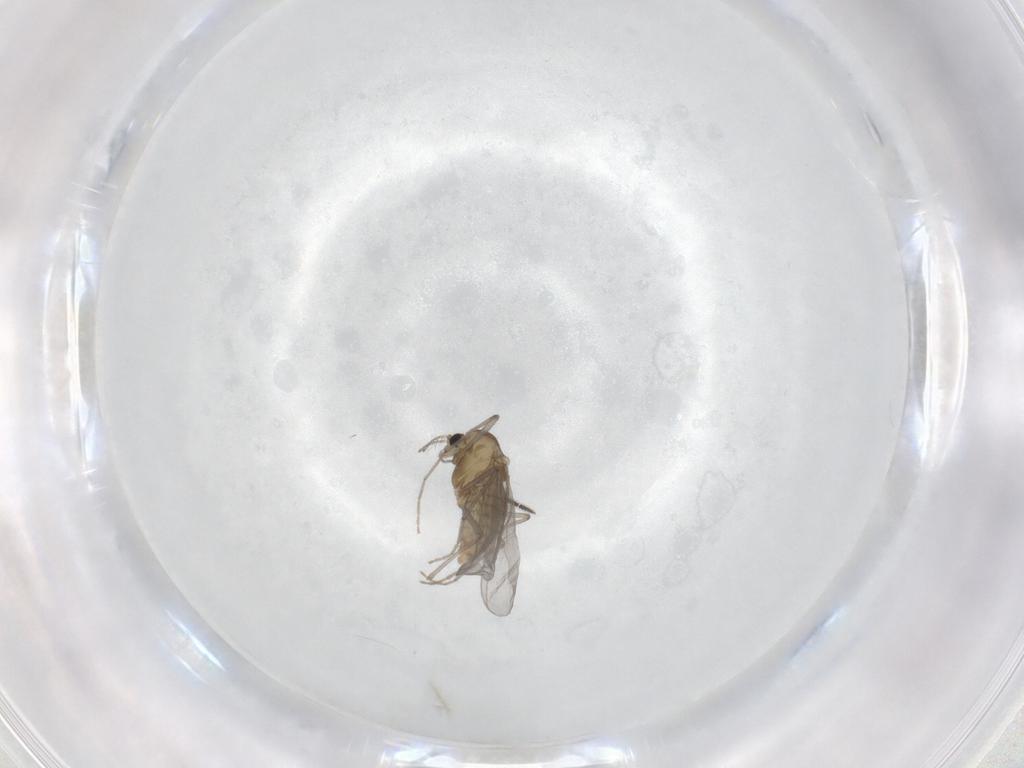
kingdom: Animalia
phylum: Arthropoda
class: Insecta
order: Diptera
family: Chironomidae
